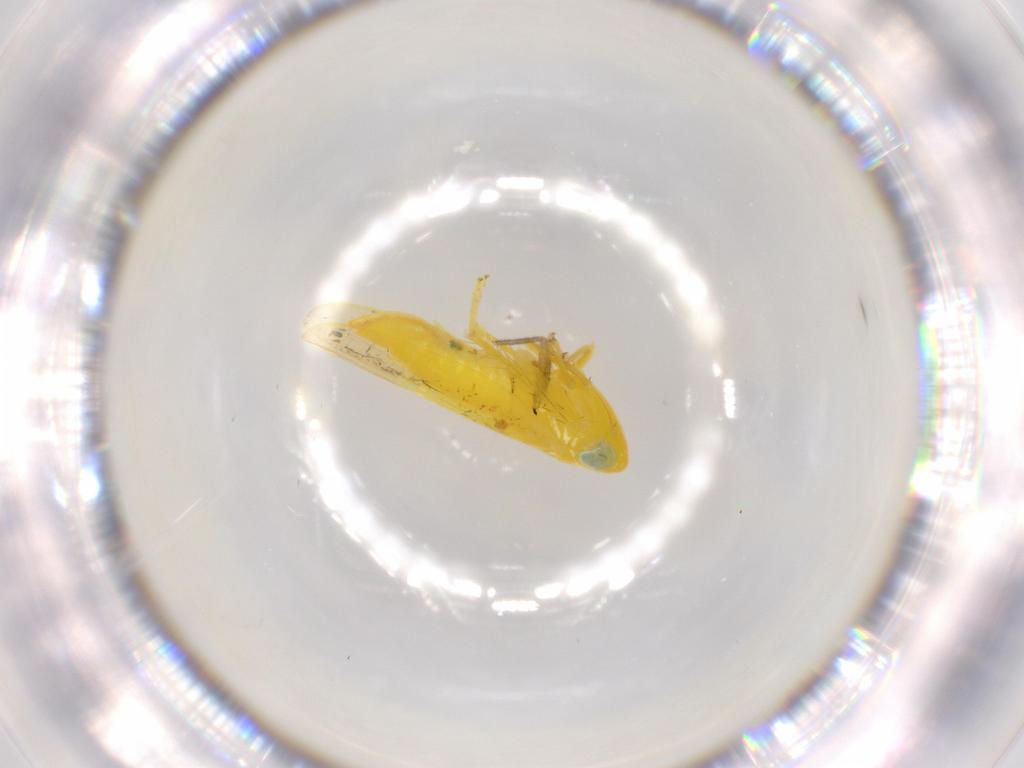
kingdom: Animalia
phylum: Arthropoda
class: Insecta
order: Hemiptera
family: Cicadellidae
